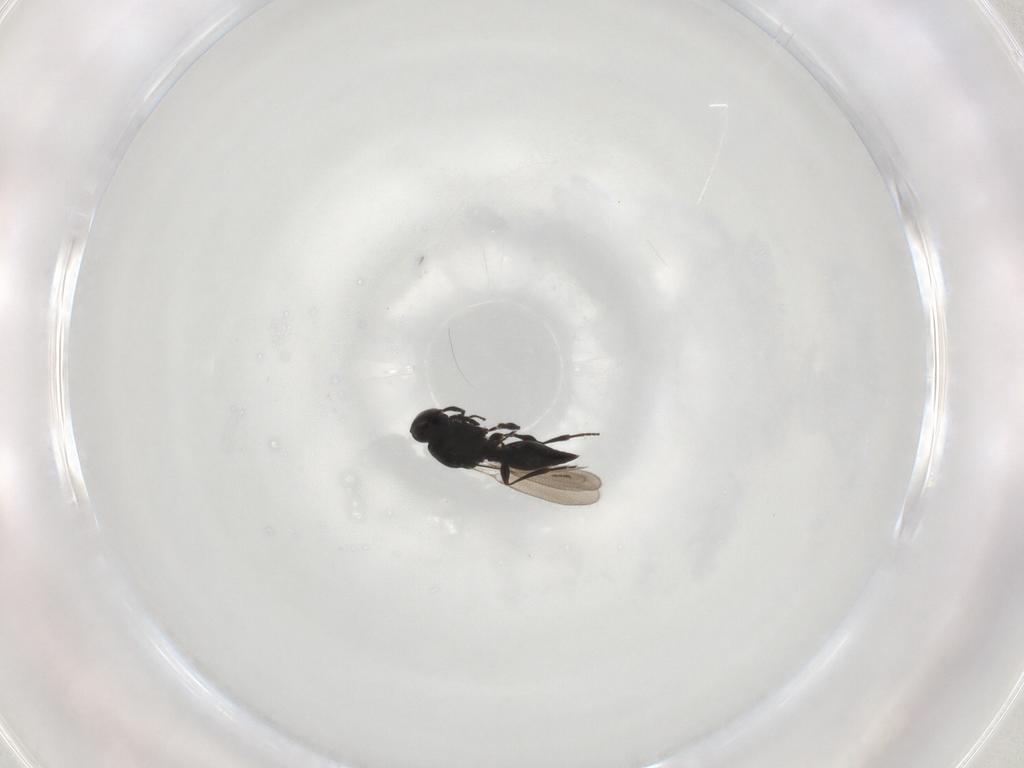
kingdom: Animalia
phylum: Arthropoda
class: Insecta
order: Hymenoptera
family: Platygastridae
